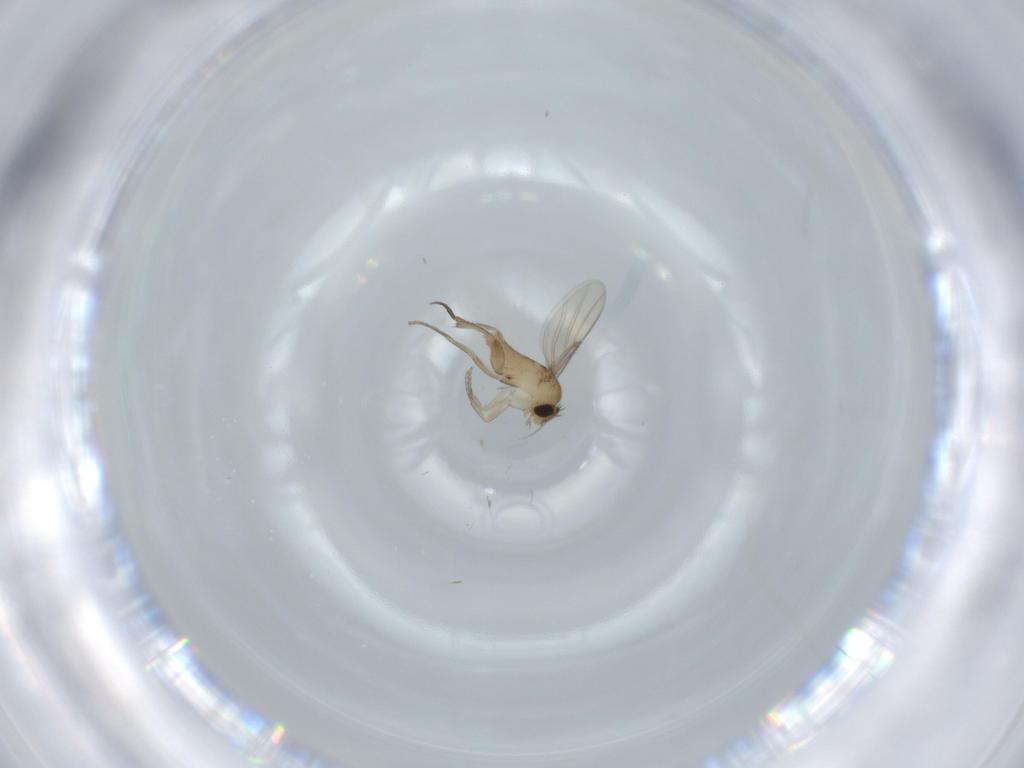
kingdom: Animalia
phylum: Arthropoda
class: Insecta
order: Diptera
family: Phoridae
